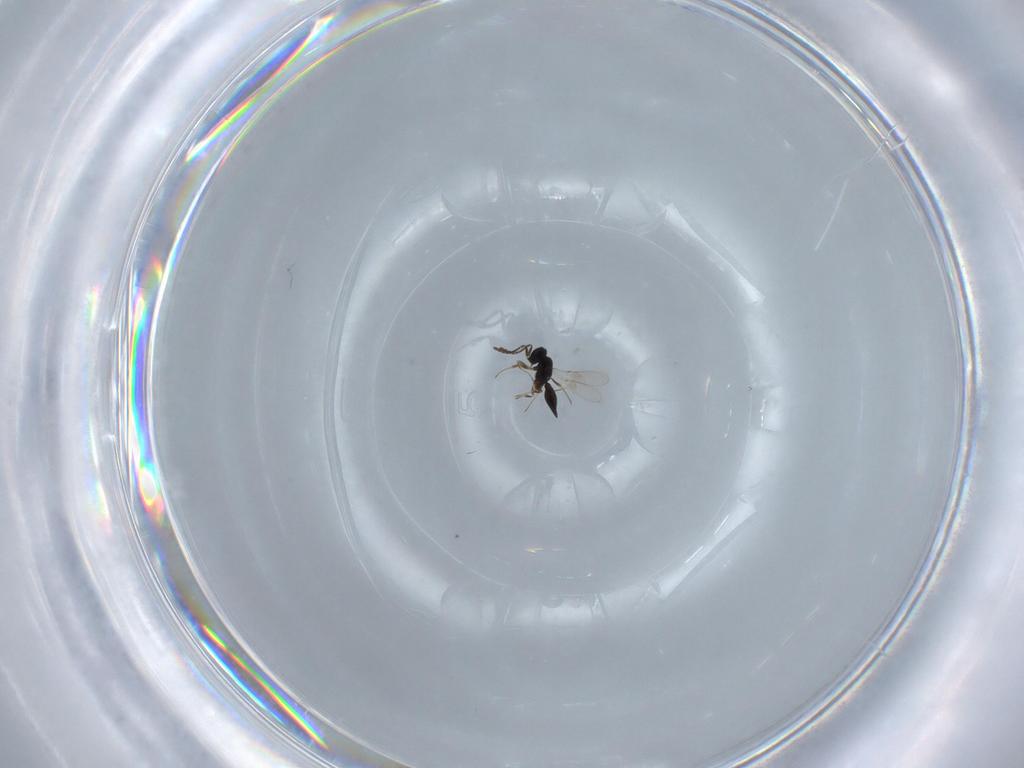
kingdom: Animalia
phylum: Arthropoda
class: Insecta
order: Hymenoptera
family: Scelionidae
